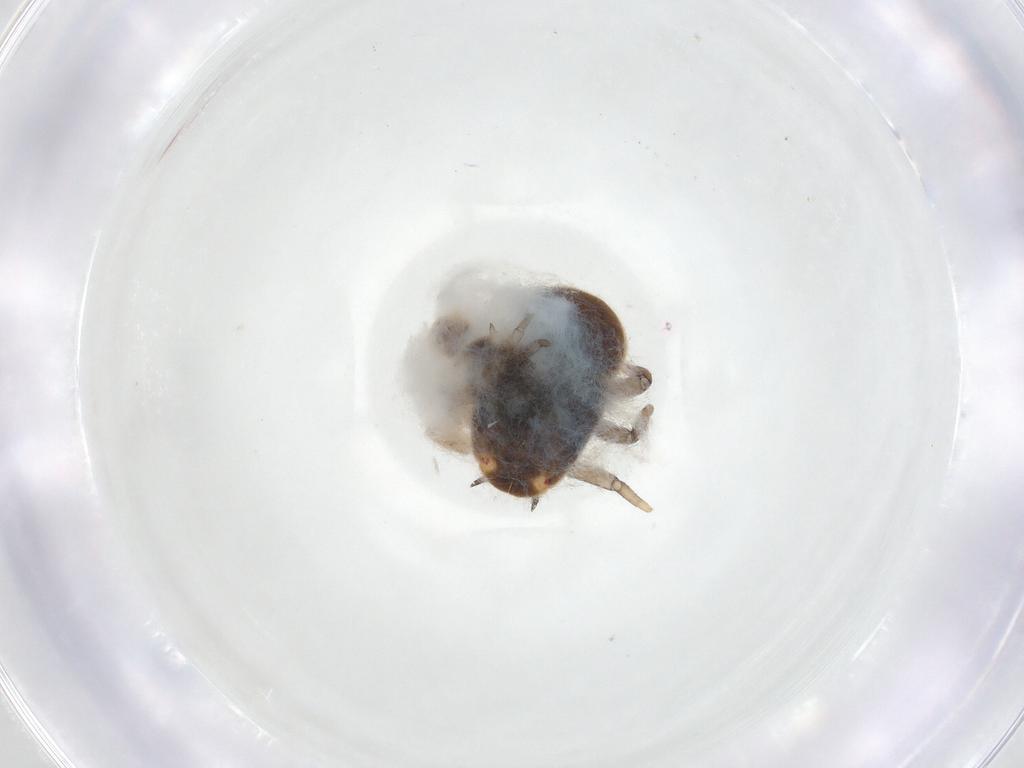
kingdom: Animalia
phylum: Arthropoda
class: Insecta
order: Hemiptera
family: Triozidae
